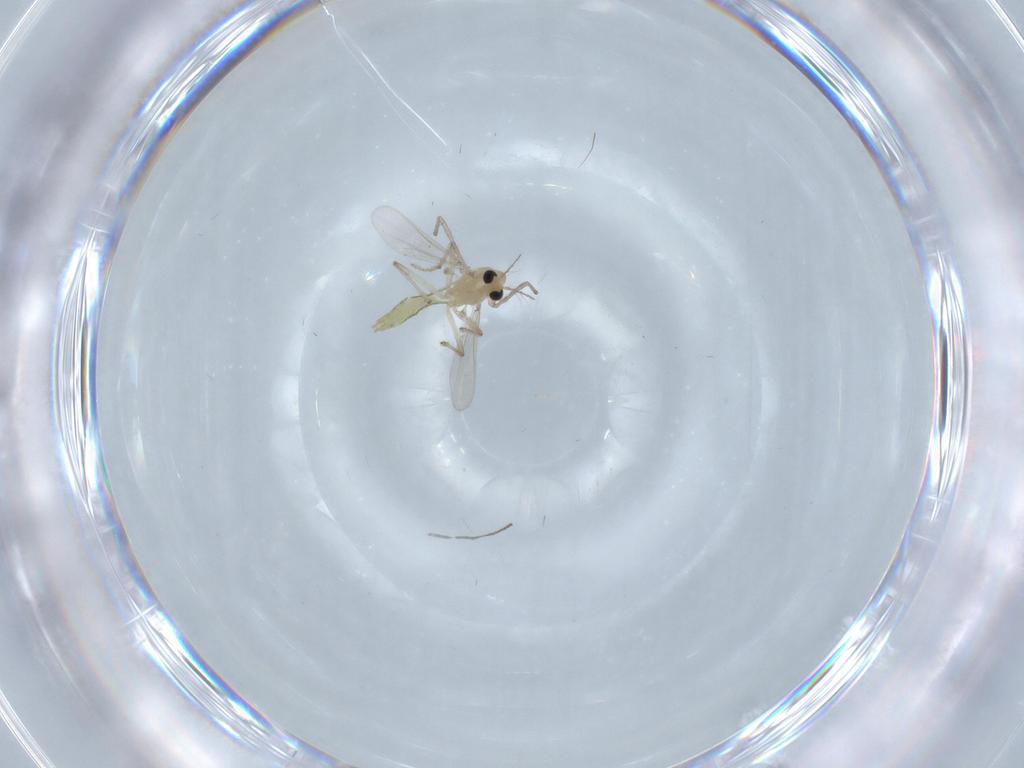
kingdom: Animalia
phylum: Arthropoda
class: Insecta
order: Diptera
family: Chironomidae
